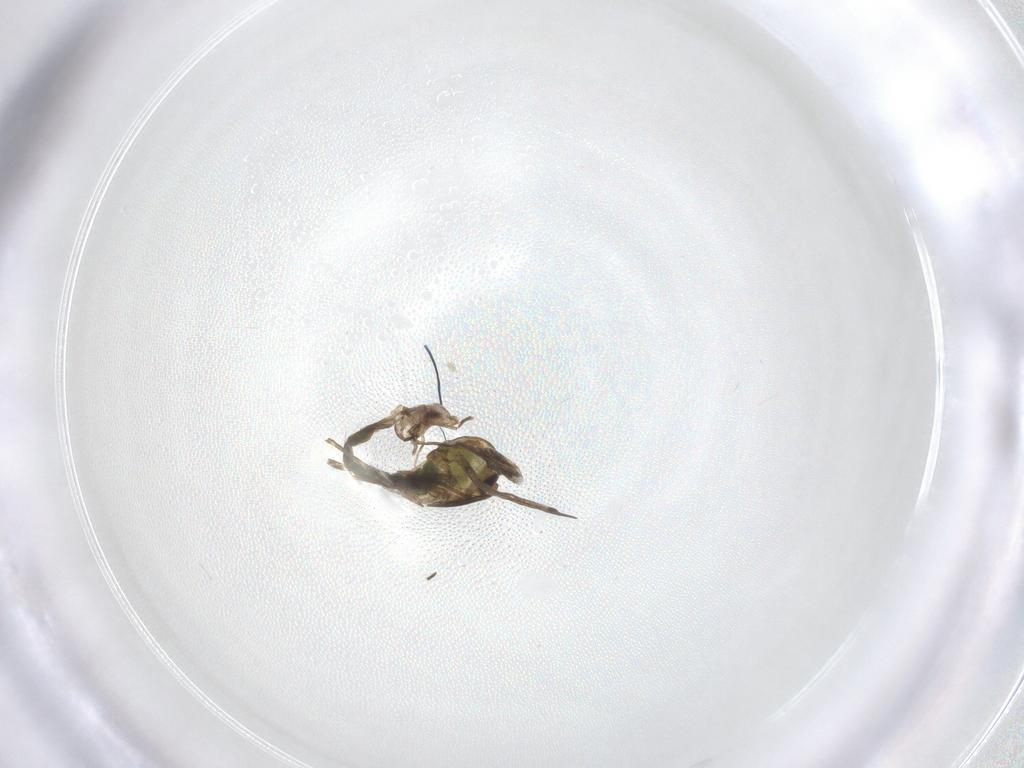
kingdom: Animalia
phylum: Arthropoda
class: Insecta
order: Diptera
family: Chironomidae
